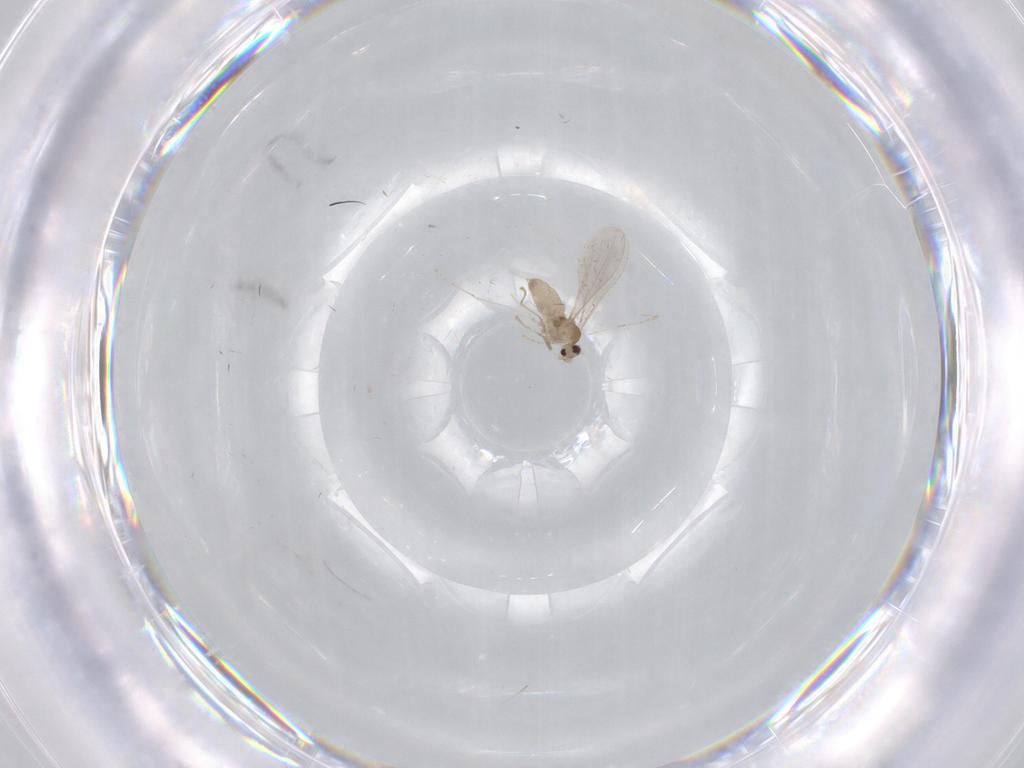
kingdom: Animalia
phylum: Arthropoda
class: Insecta
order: Diptera
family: Cecidomyiidae
